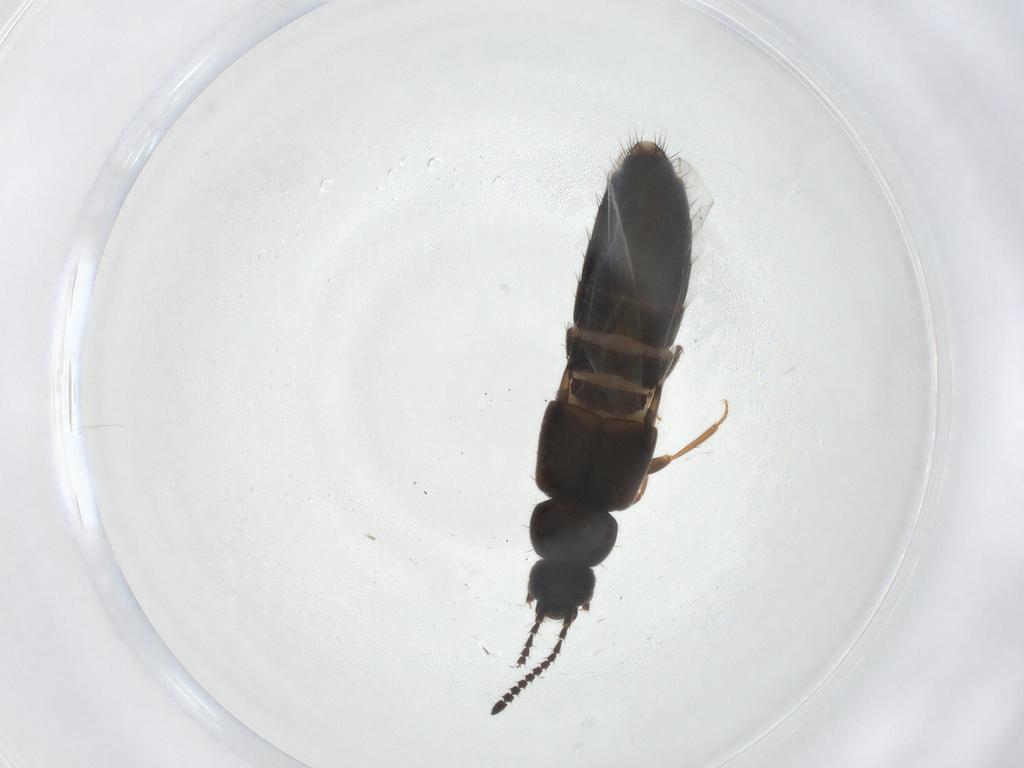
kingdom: Animalia
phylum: Arthropoda
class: Insecta
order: Coleoptera
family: Staphylinidae
